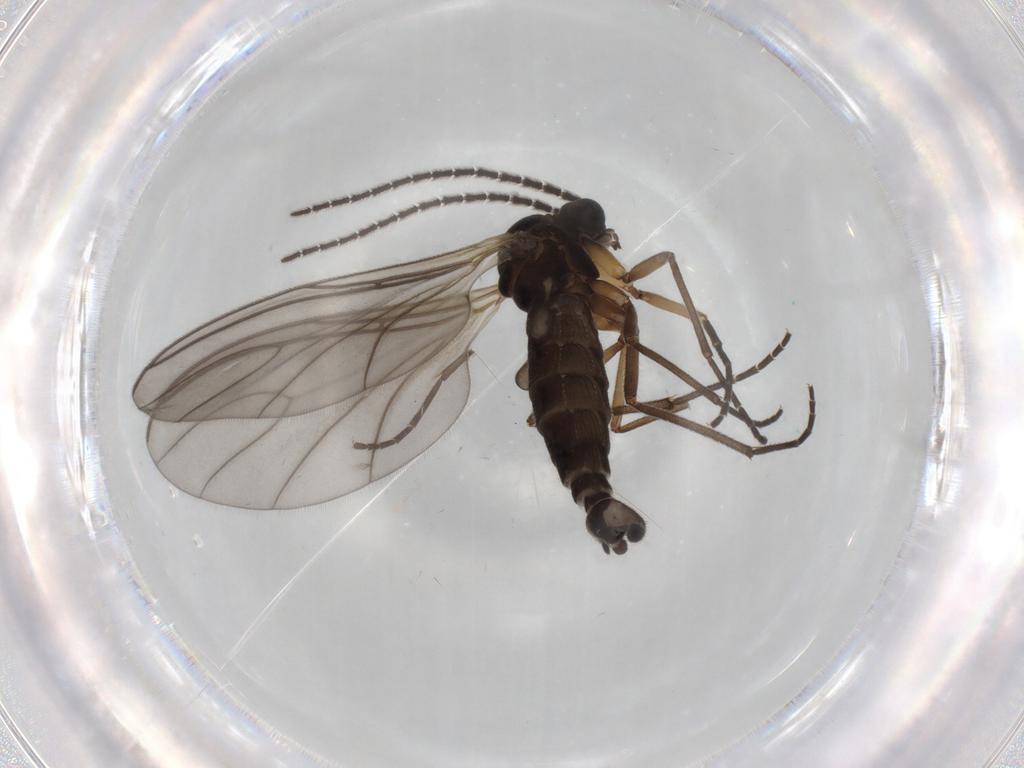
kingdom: Animalia
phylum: Arthropoda
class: Insecta
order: Diptera
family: Sciaridae
